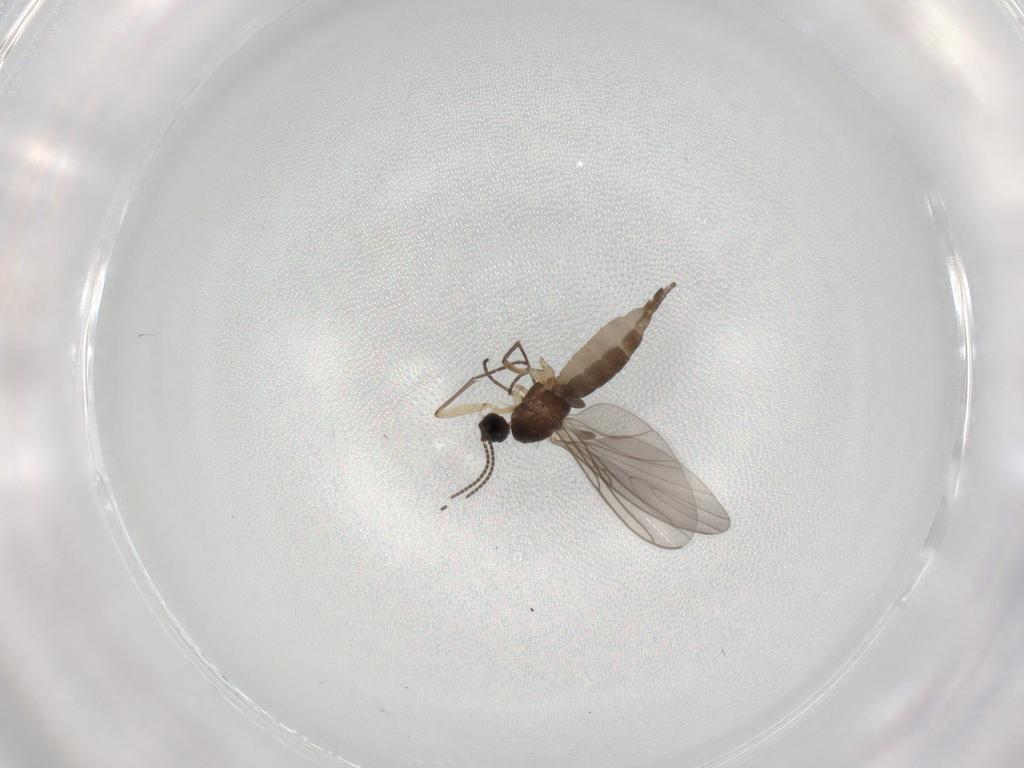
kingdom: Animalia
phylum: Arthropoda
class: Insecta
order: Diptera
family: Sciaridae
